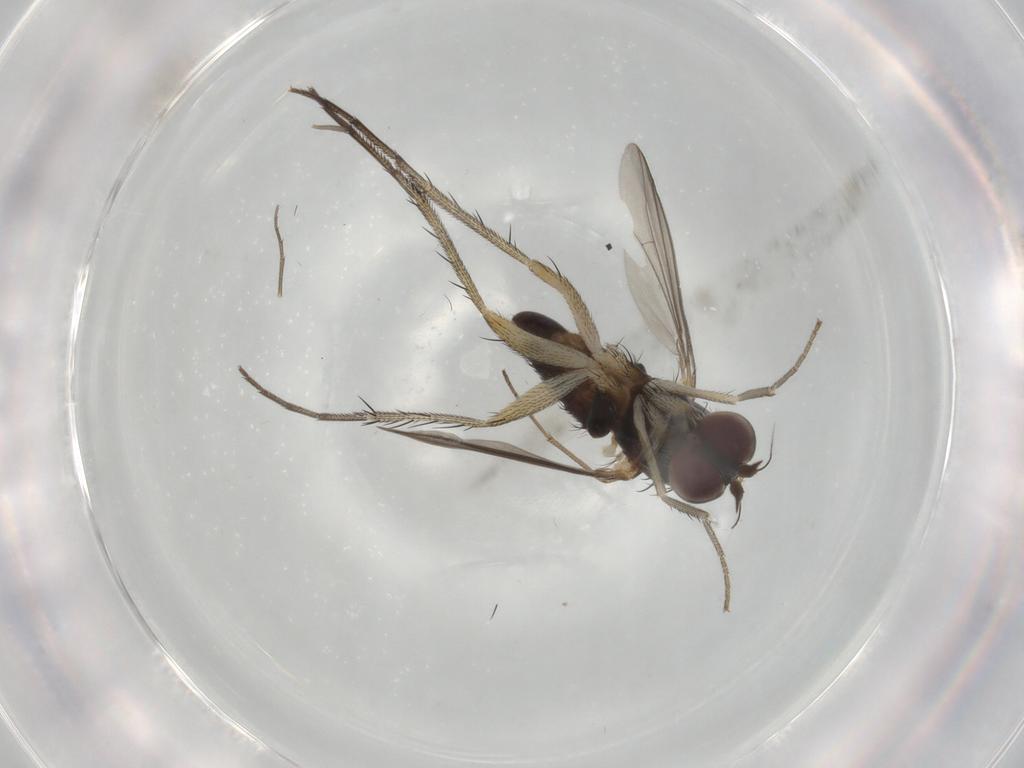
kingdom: Animalia
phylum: Arthropoda
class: Insecta
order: Diptera
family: Dolichopodidae
